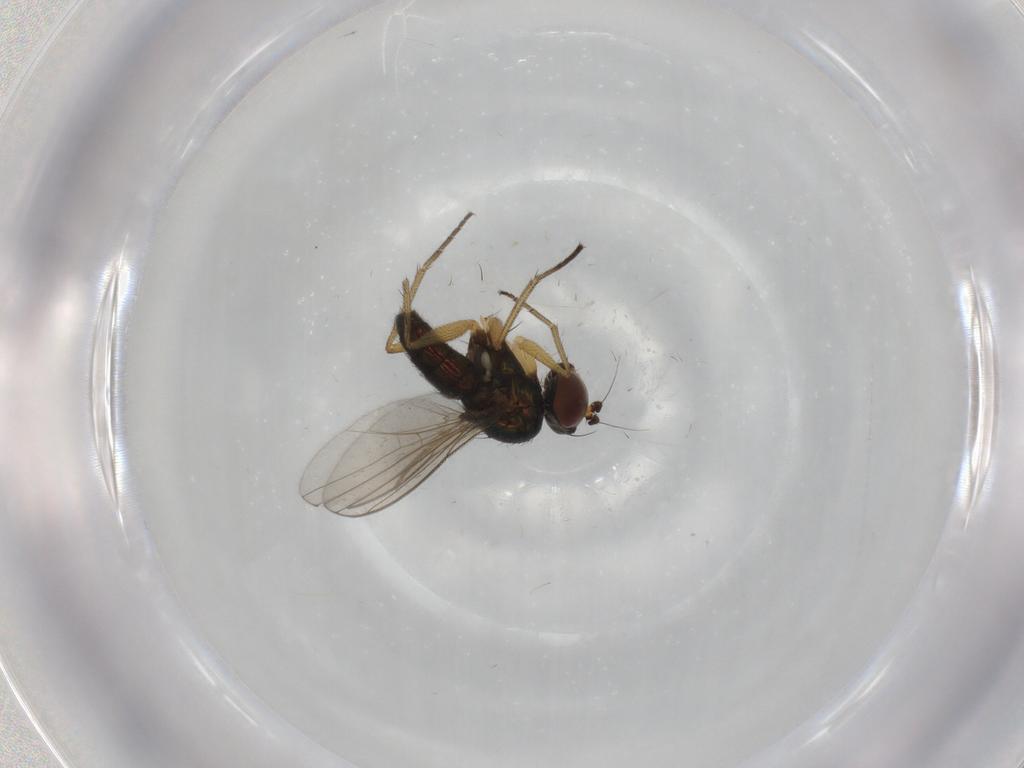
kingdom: Animalia
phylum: Arthropoda
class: Insecta
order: Diptera
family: Dolichopodidae
